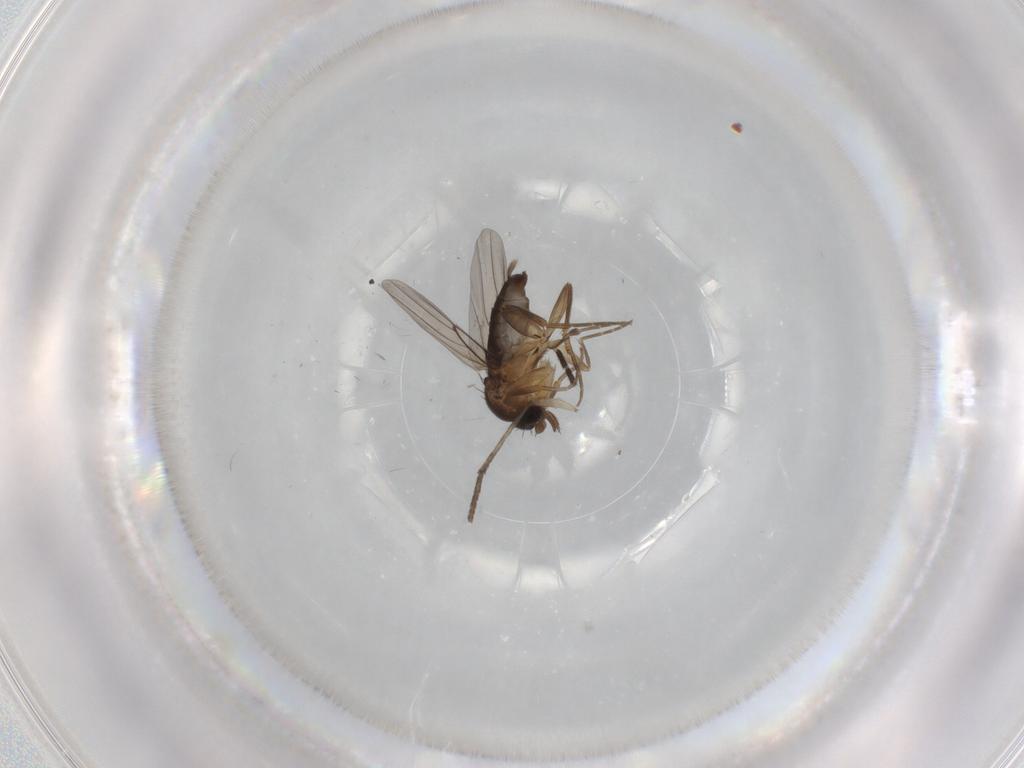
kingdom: Animalia
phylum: Arthropoda
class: Insecta
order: Diptera
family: Phoridae
